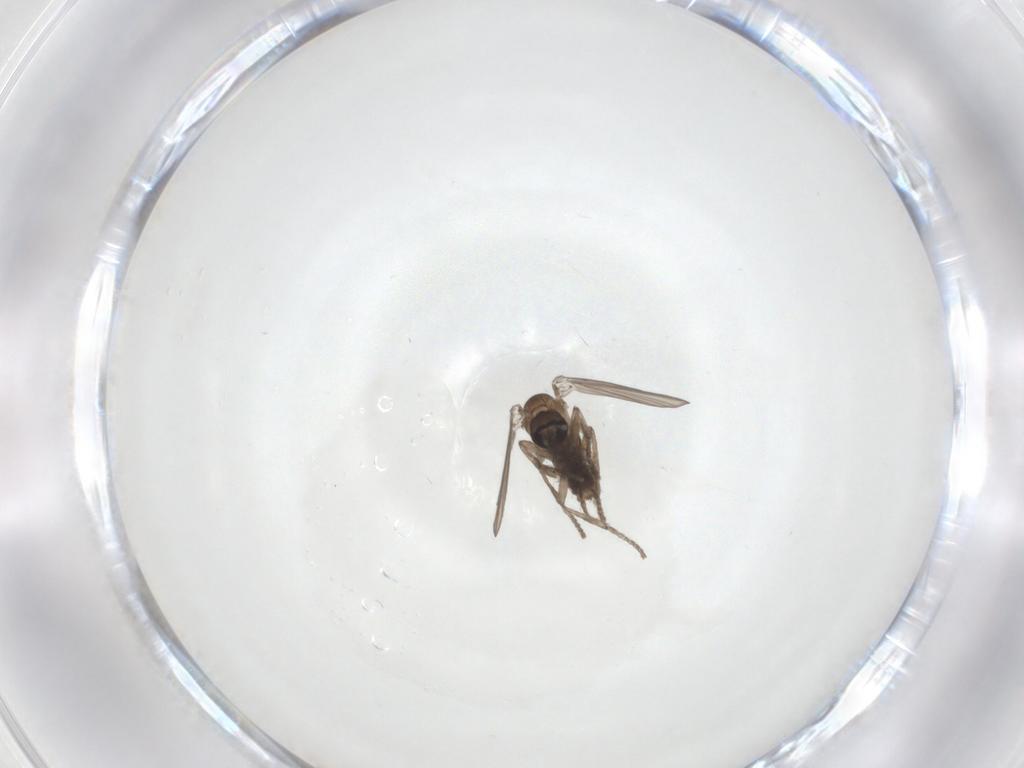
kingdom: Animalia
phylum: Arthropoda
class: Insecta
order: Diptera
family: Psychodidae
